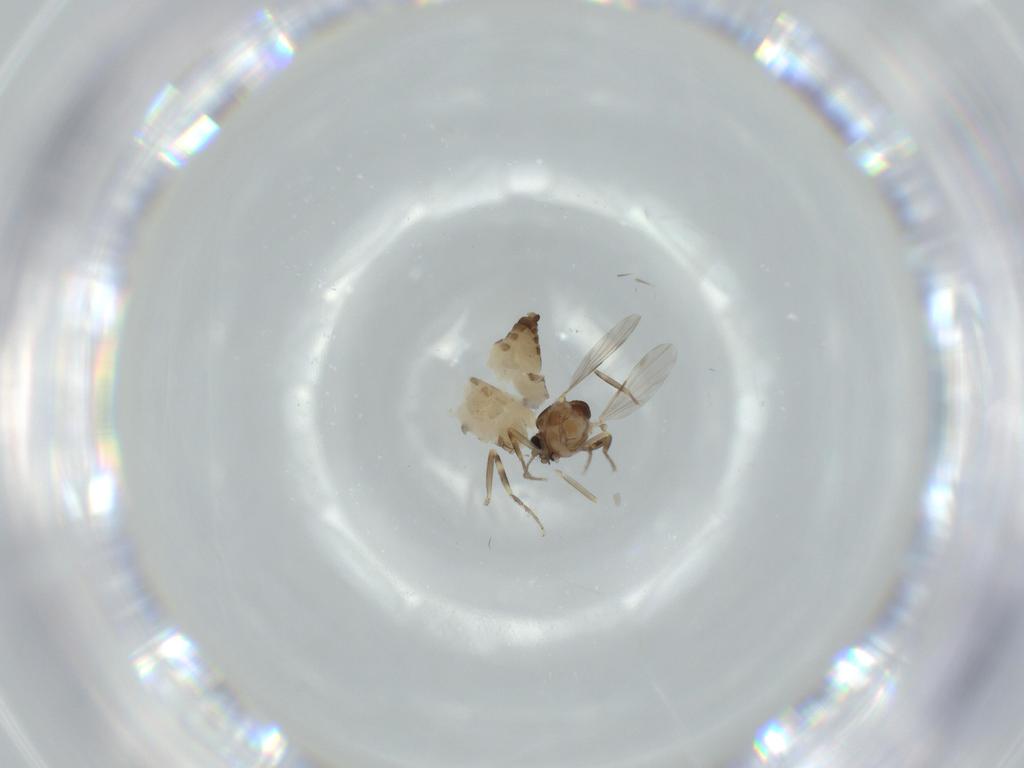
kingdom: Animalia
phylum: Arthropoda
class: Insecta
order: Diptera
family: Ceratopogonidae
